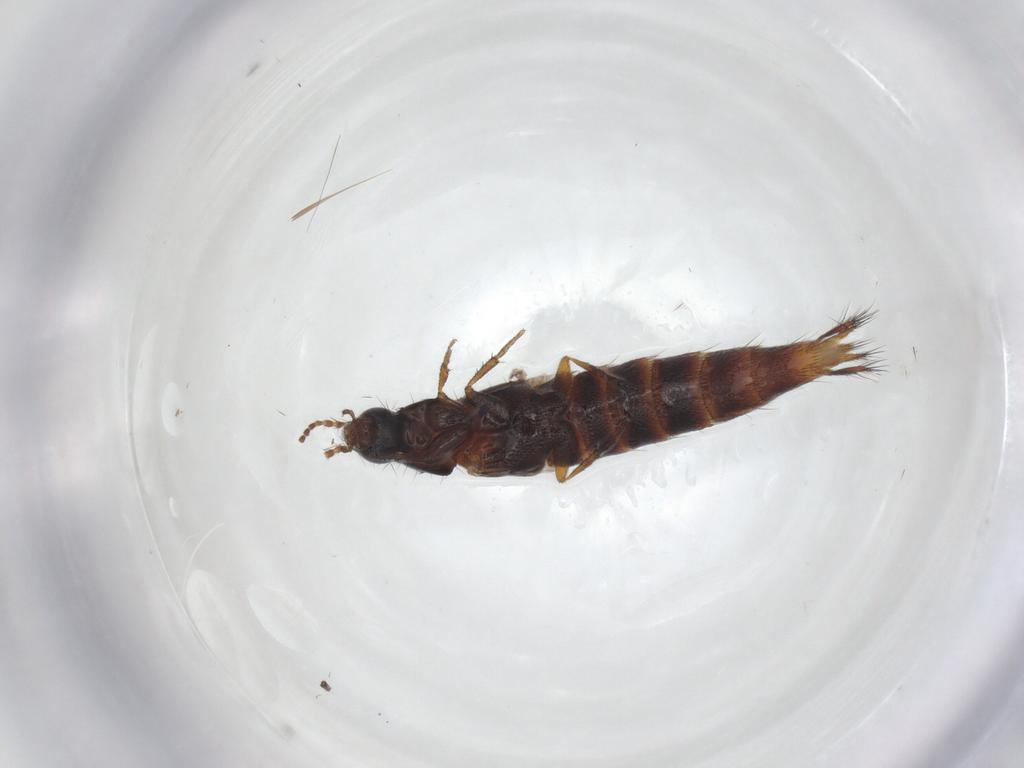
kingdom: Animalia
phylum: Arthropoda
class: Insecta
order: Coleoptera
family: Staphylinidae
